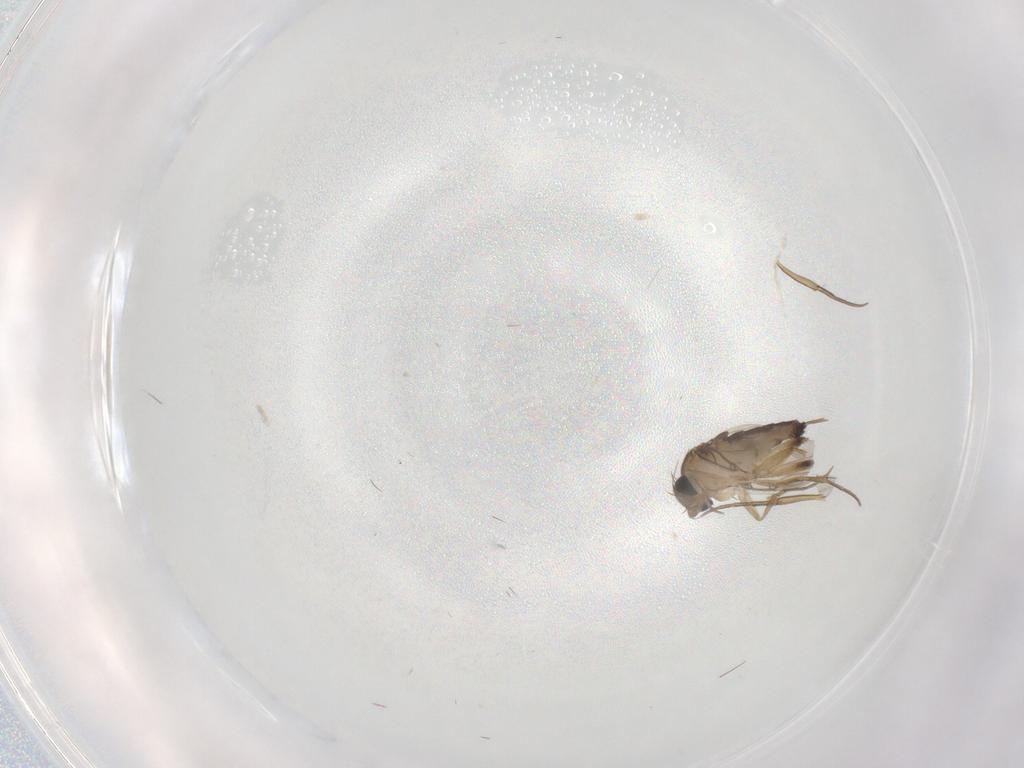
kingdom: Animalia
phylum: Arthropoda
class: Insecta
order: Diptera
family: Phoridae
